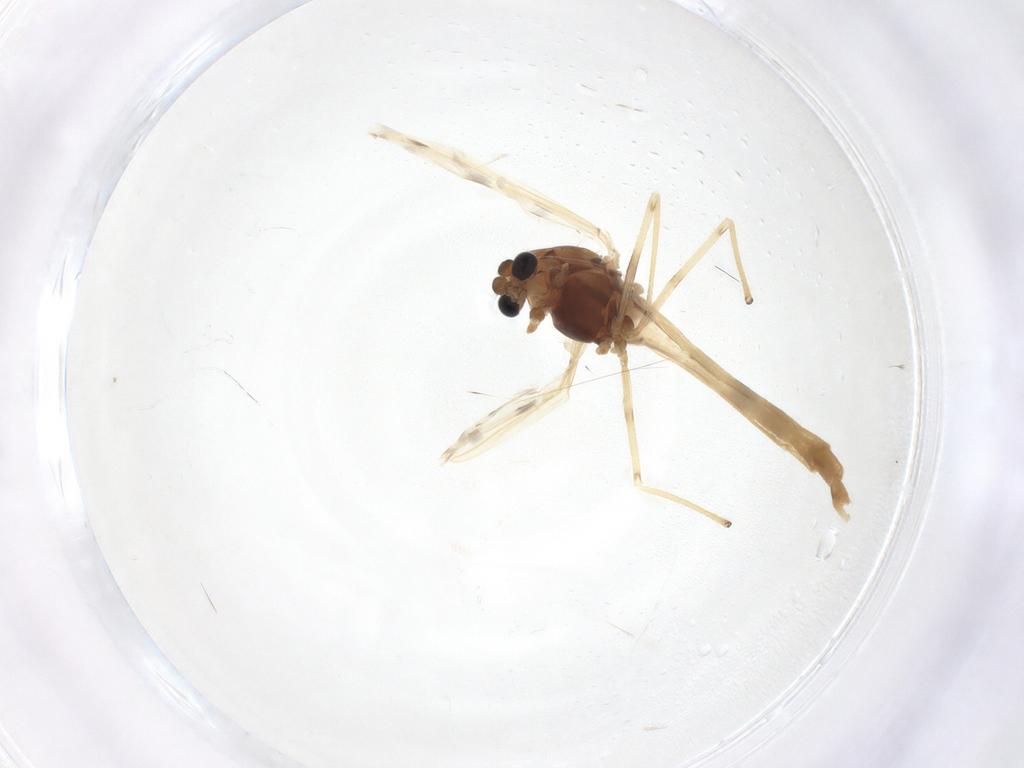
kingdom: Animalia
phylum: Arthropoda
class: Insecta
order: Diptera
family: Chironomidae
